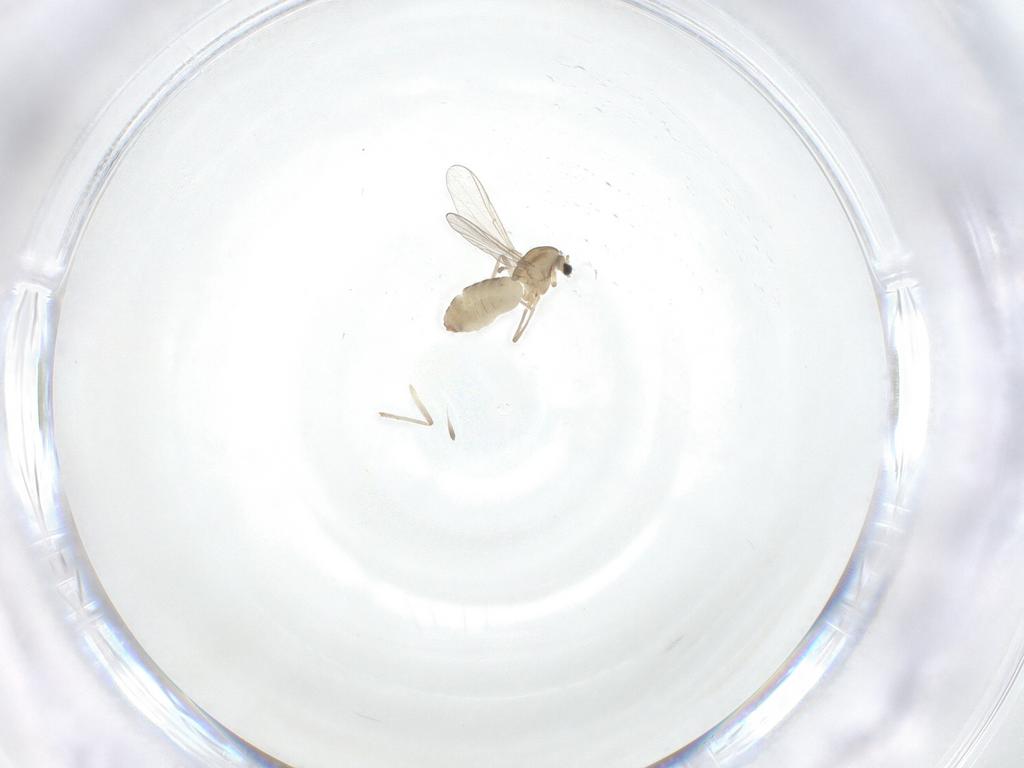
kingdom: Animalia
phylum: Arthropoda
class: Insecta
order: Diptera
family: Chironomidae
